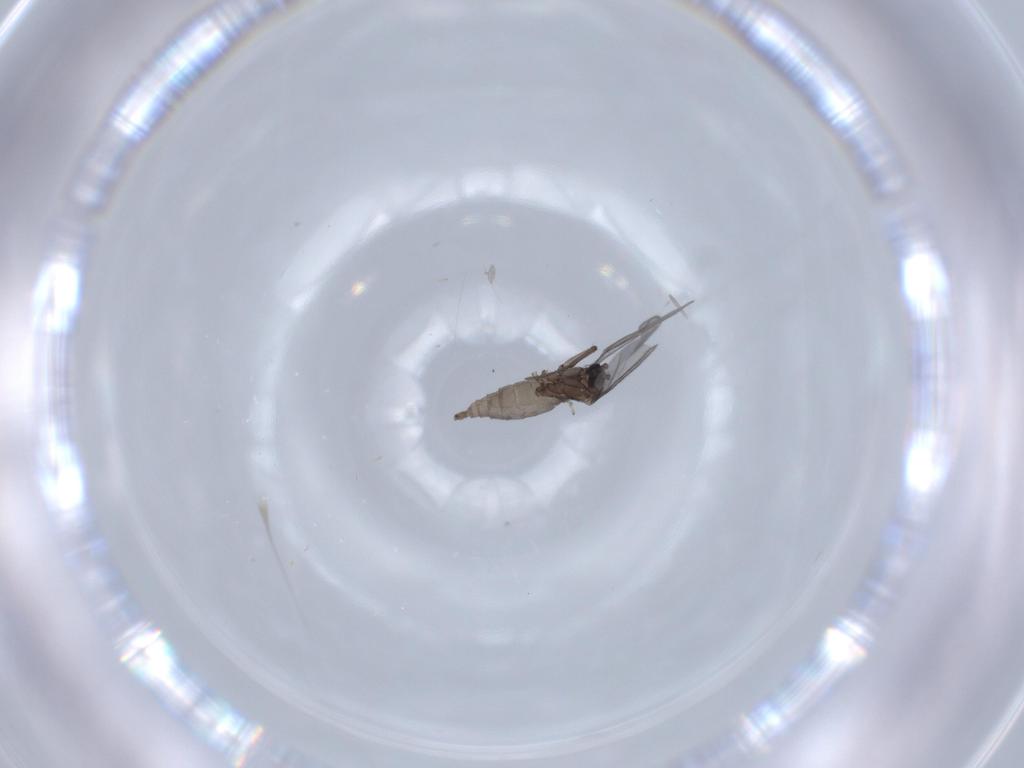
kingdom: Animalia
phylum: Arthropoda
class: Insecta
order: Diptera
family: Sciaridae
